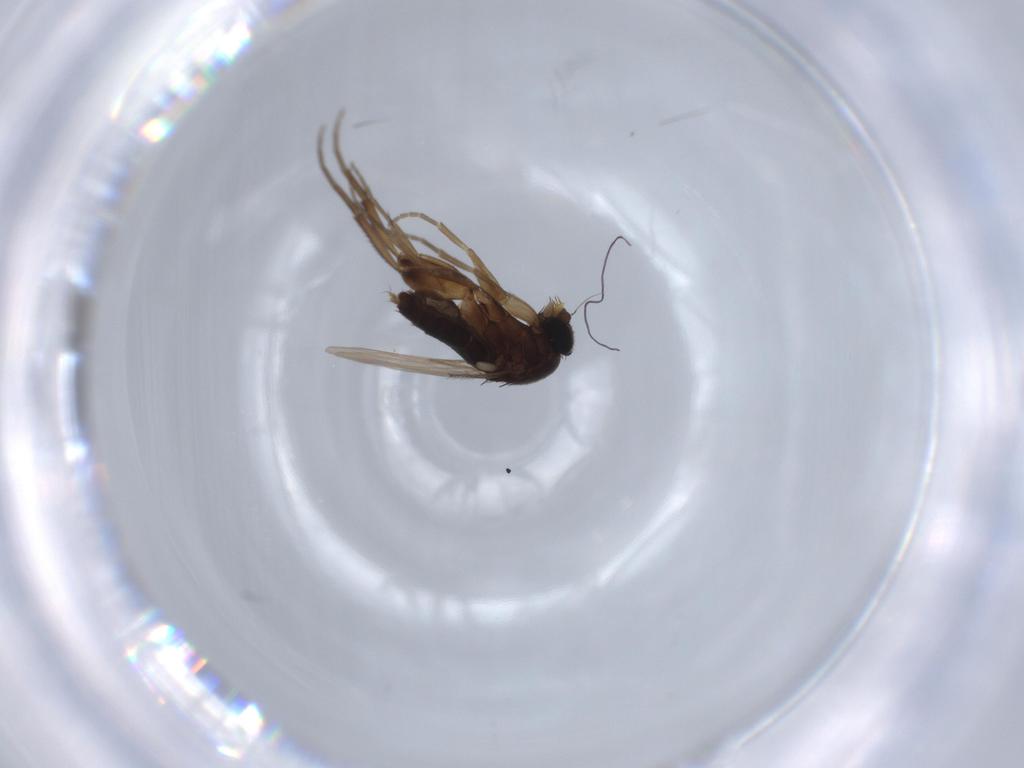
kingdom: Animalia
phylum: Arthropoda
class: Insecta
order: Diptera
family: Phoridae
